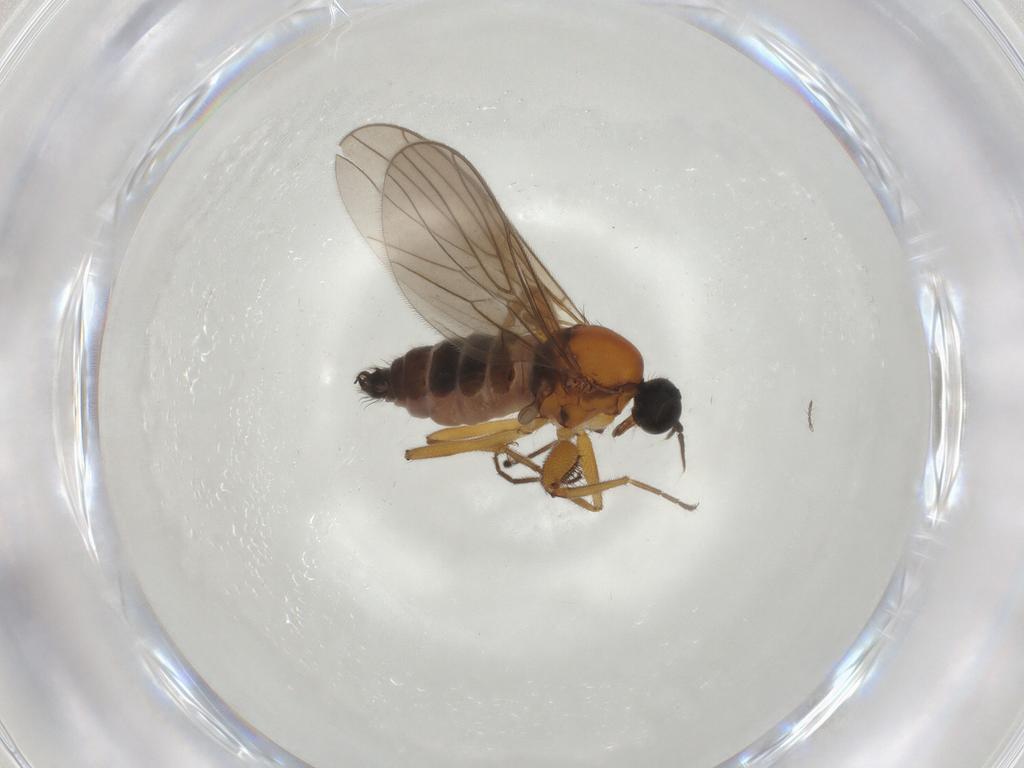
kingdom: Animalia
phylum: Arthropoda
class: Insecta
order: Diptera
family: Hybotidae
